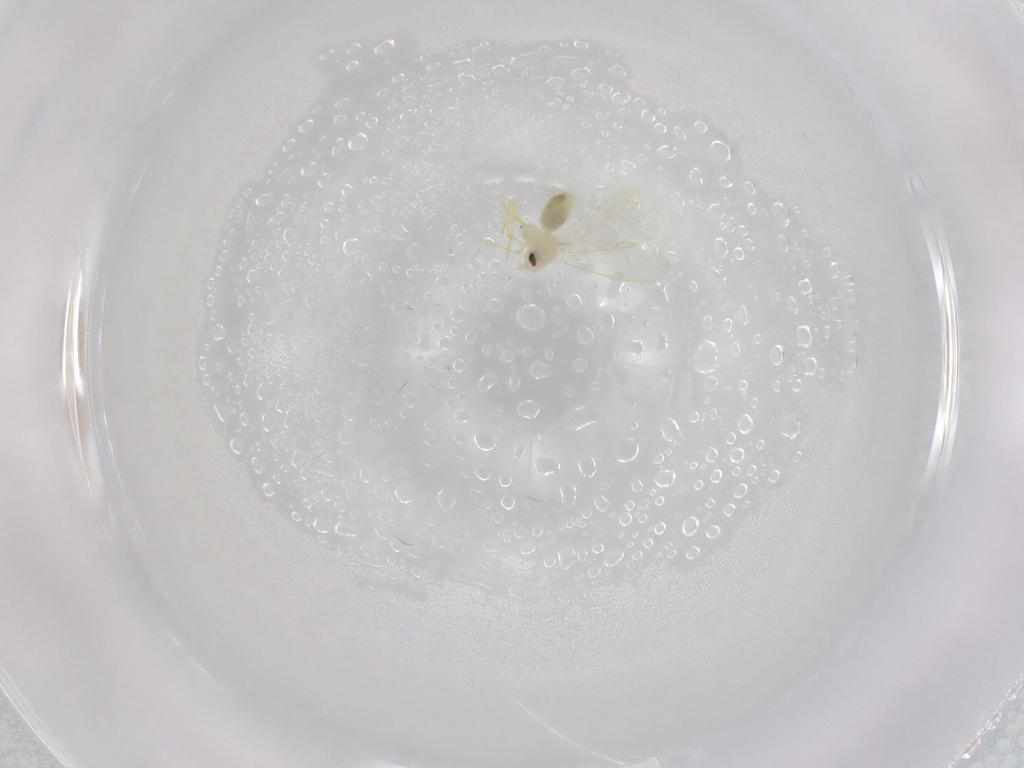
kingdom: Animalia
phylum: Arthropoda
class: Insecta
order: Hemiptera
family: Aleyrodidae
